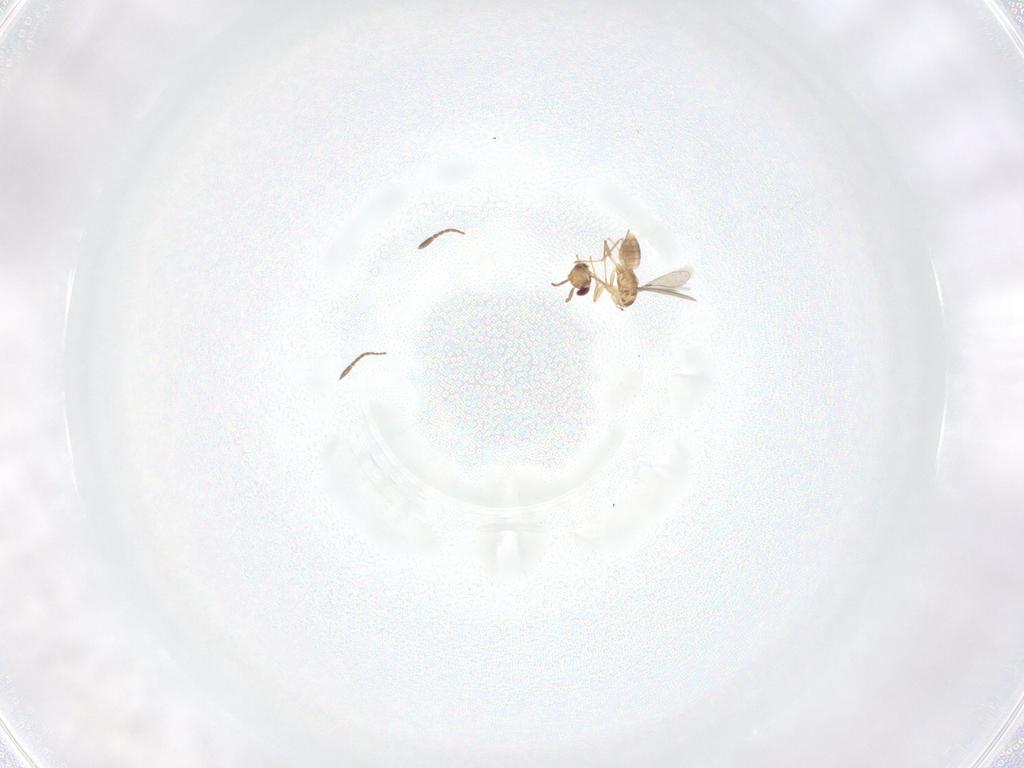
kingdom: Animalia
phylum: Arthropoda
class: Insecta
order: Hymenoptera
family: Mymaridae
